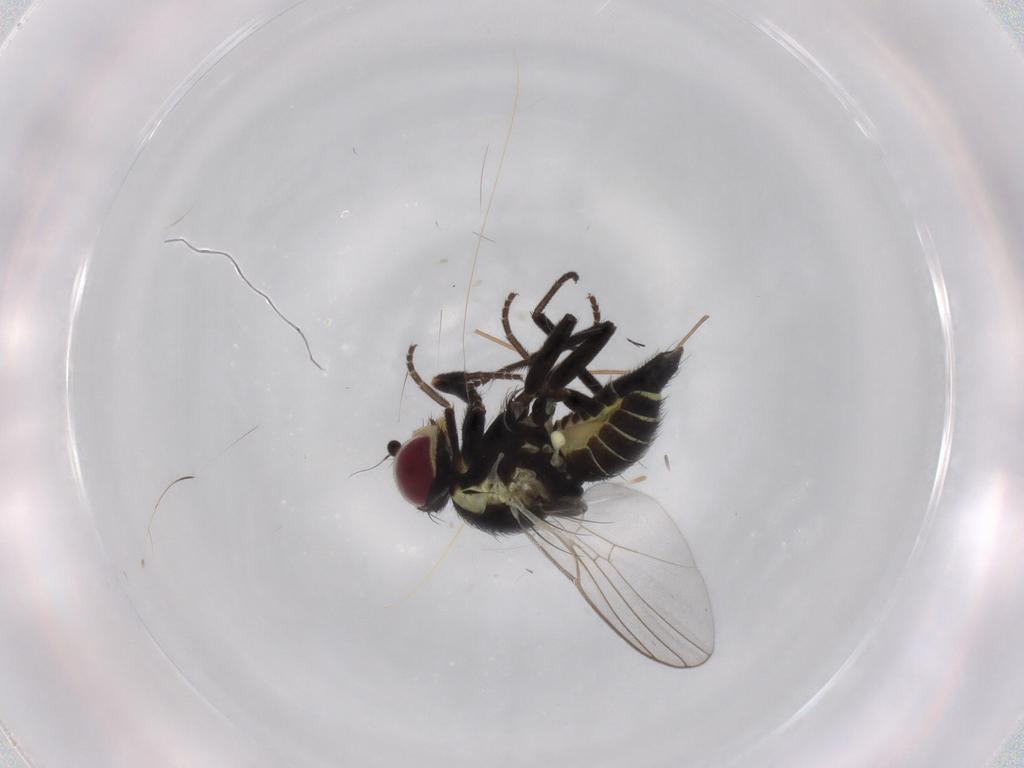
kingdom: Animalia
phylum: Arthropoda
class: Insecta
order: Diptera
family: Agromyzidae
